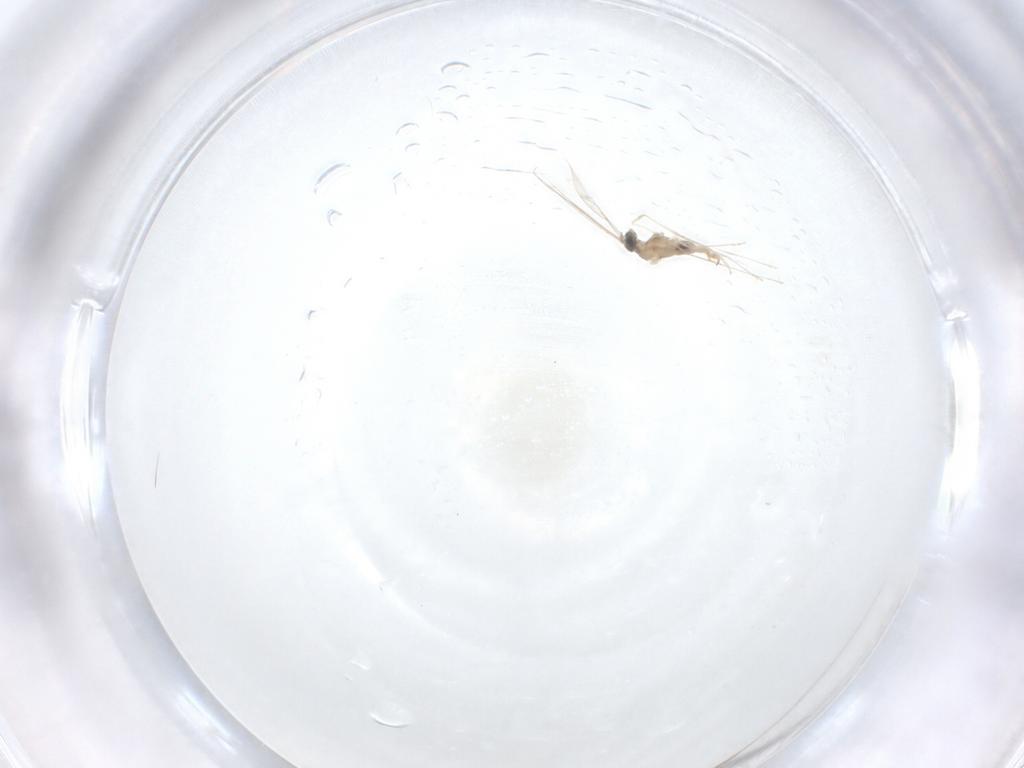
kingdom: Animalia
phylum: Arthropoda
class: Insecta
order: Diptera
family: Cecidomyiidae
